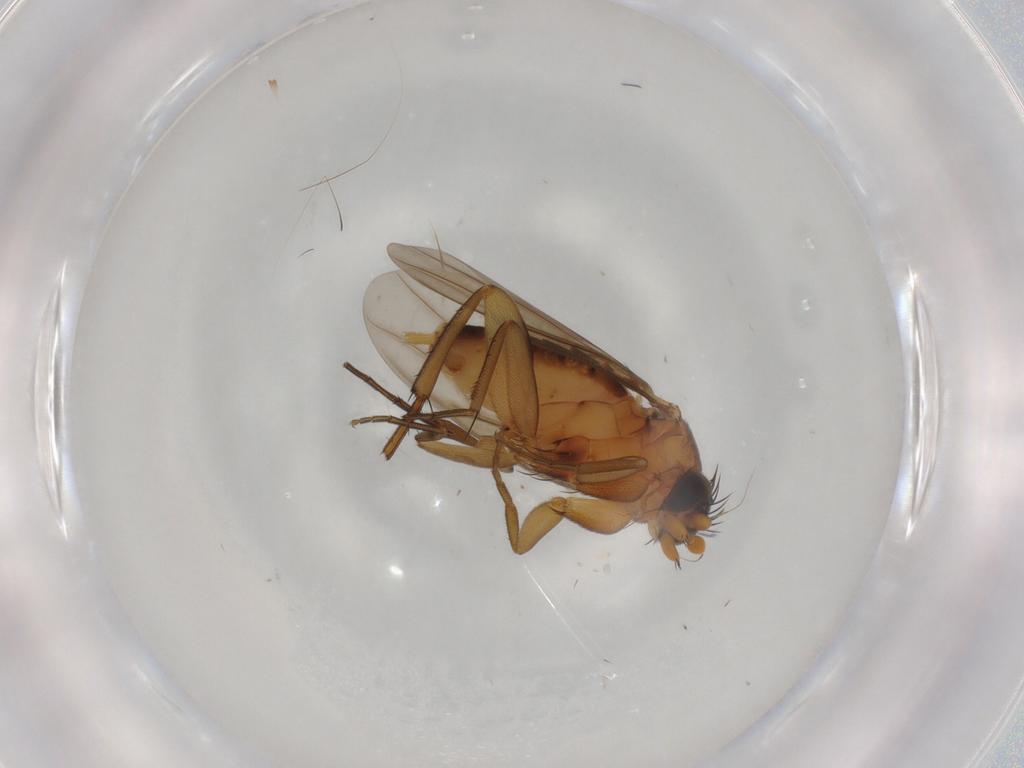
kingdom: Animalia
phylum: Arthropoda
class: Insecta
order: Diptera
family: Phoridae
